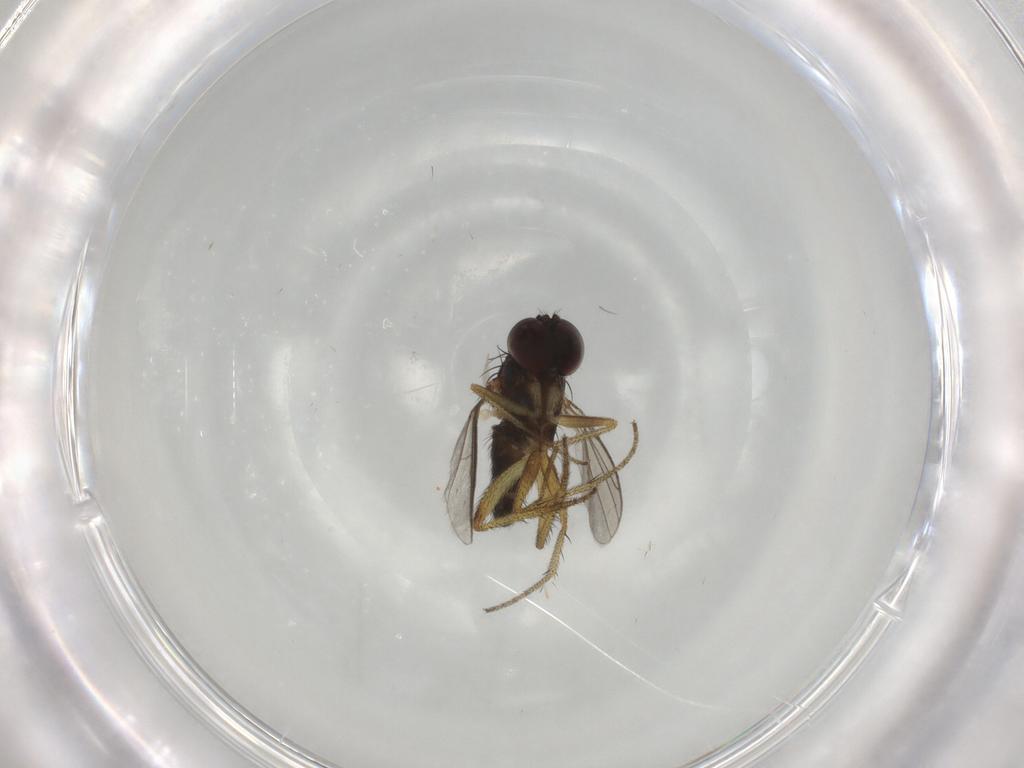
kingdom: Animalia
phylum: Arthropoda
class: Insecta
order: Diptera
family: Dolichopodidae
